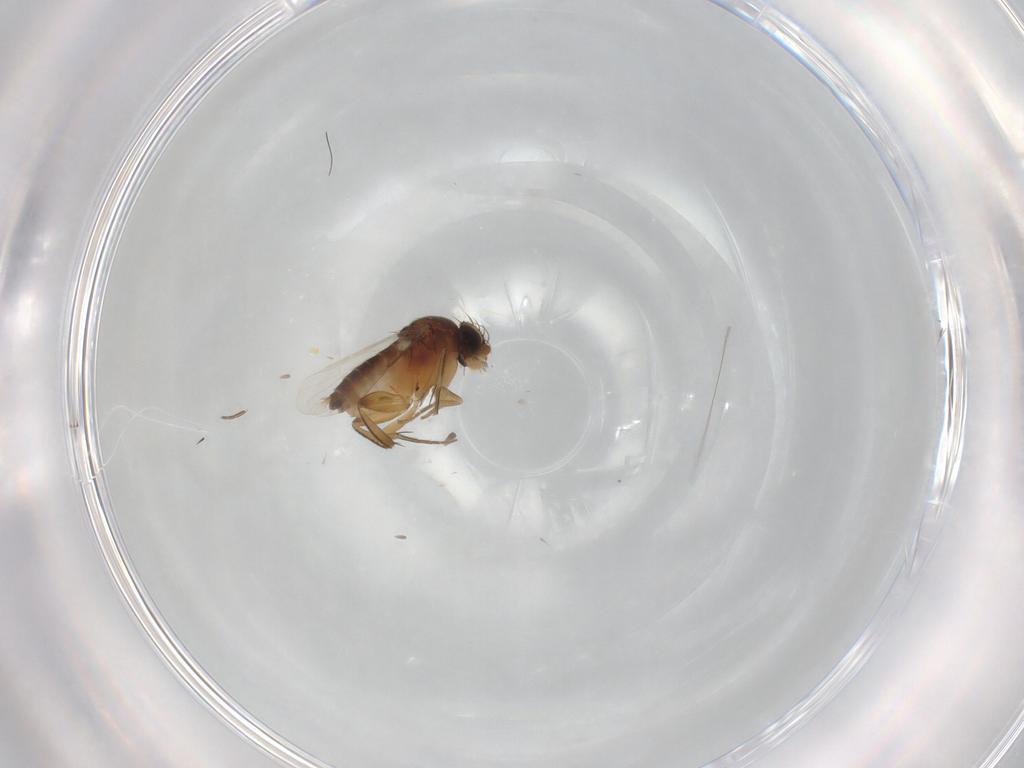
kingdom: Animalia
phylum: Arthropoda
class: Insecta
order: Diptera
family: Phoridae
